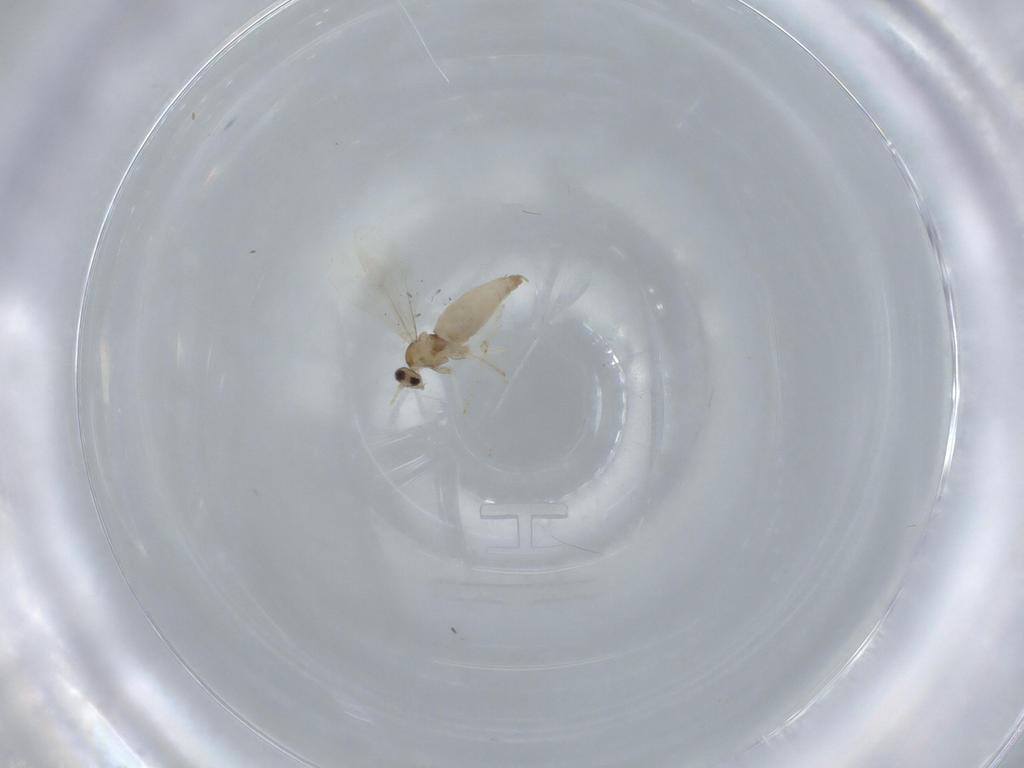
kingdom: Animalia
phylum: Arthropoda
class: Insecta
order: Diptera
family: Cecidomyiidae
